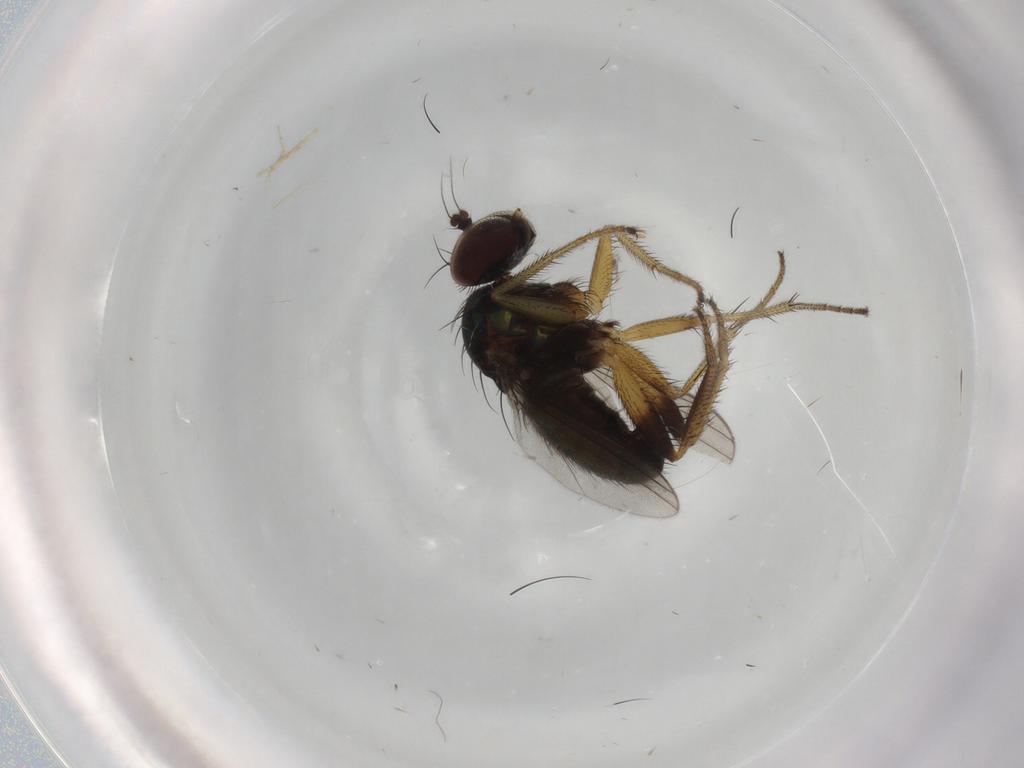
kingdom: Animalia
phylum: Arthropoda
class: Insecta
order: Diptera
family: Dolichopodidae
